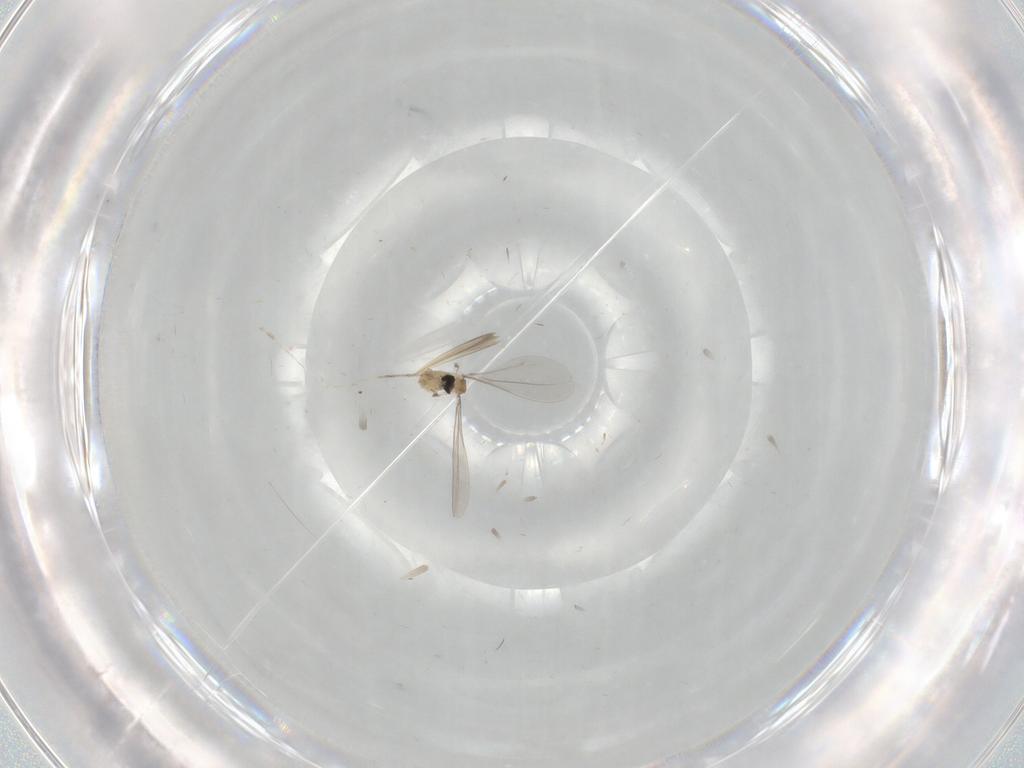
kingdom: Animalia
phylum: Arthropoda
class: Insecta
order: Diptera
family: Cecidomyiidae
